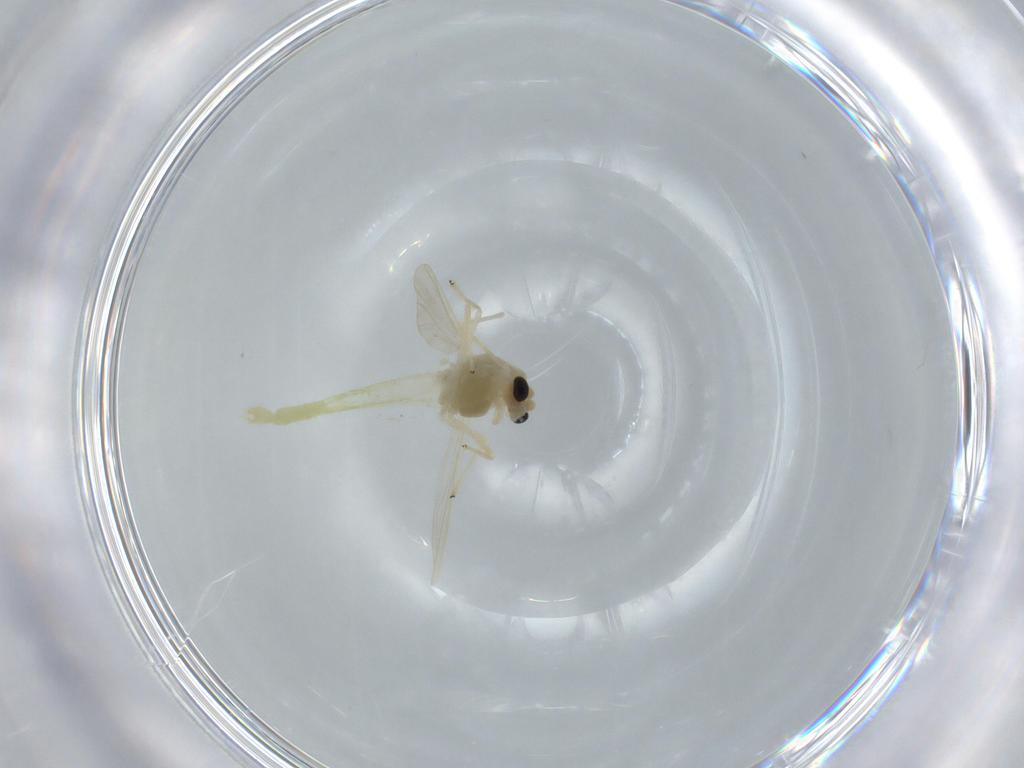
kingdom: Animalia
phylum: Arthropoda
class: Insecta
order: Diptera
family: Chironomidae
